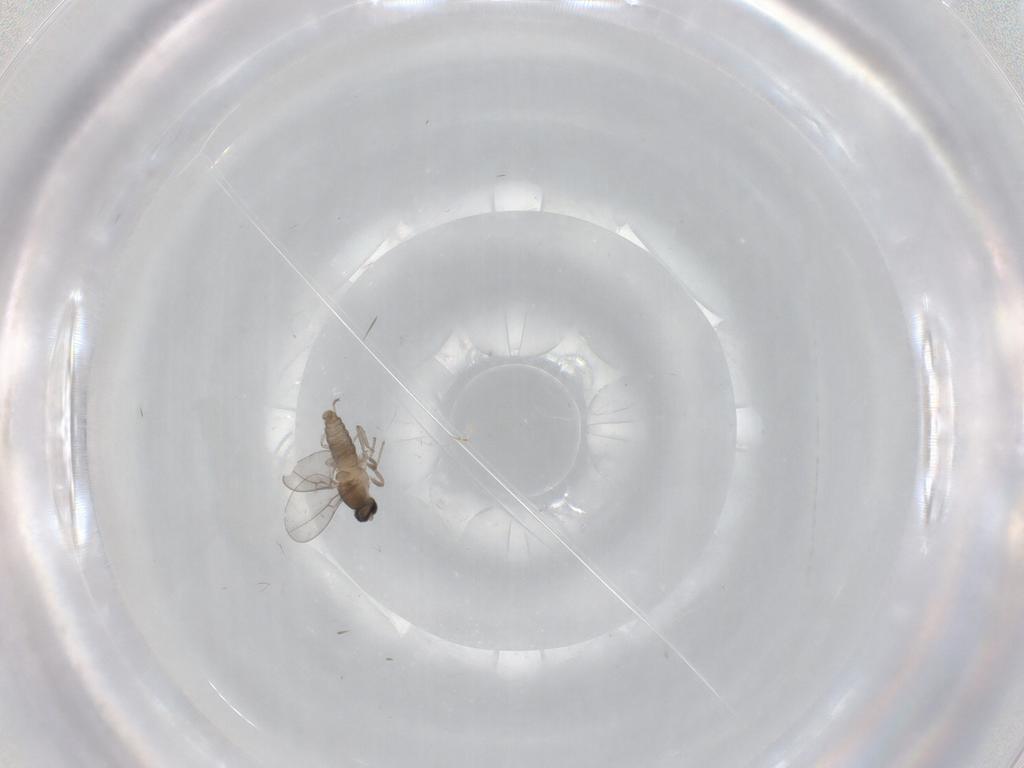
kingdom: Animalia
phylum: Arthropoda
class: Insecta
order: Diptera
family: Cecidomyiidae
